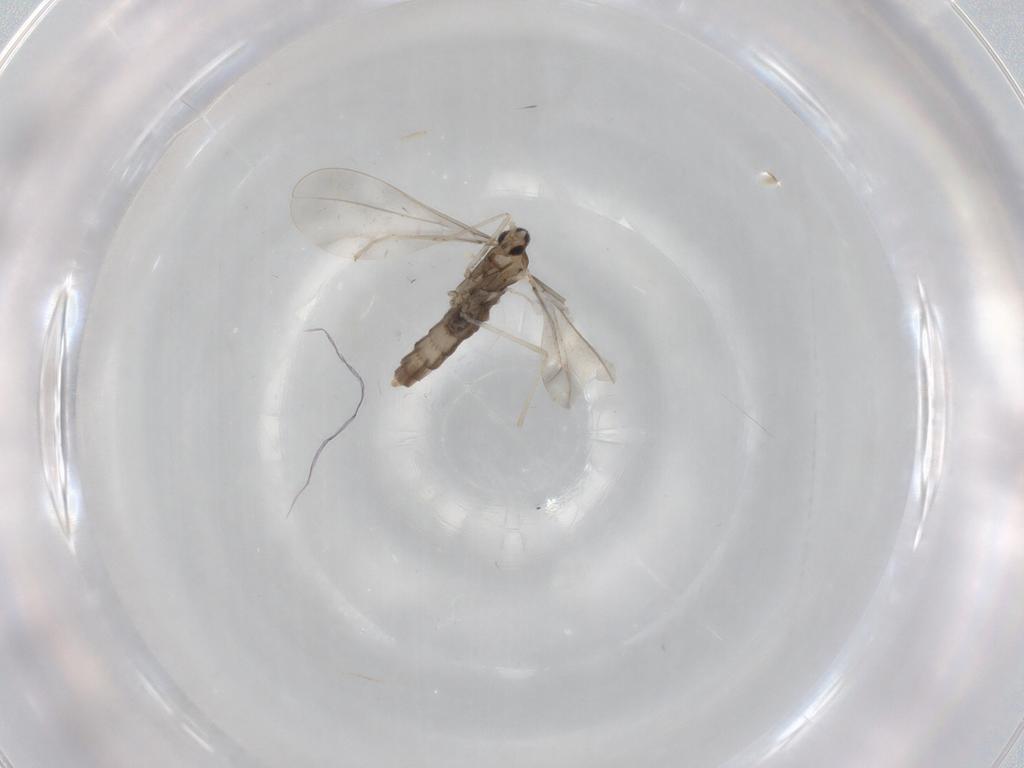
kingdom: Animalia
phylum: Arthropoda
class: Insecta
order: Diptera
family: Cecidomyiidae
